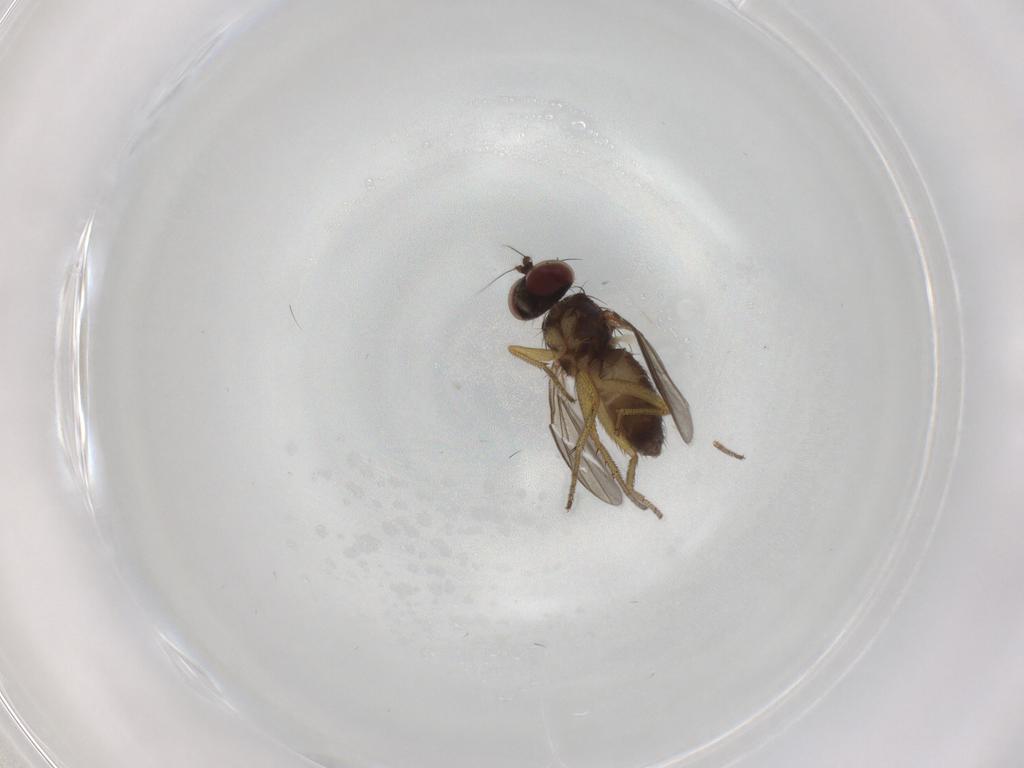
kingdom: Animalia
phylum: Arthropoda
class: Insecta
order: Diptera
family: Dolichopodidae
